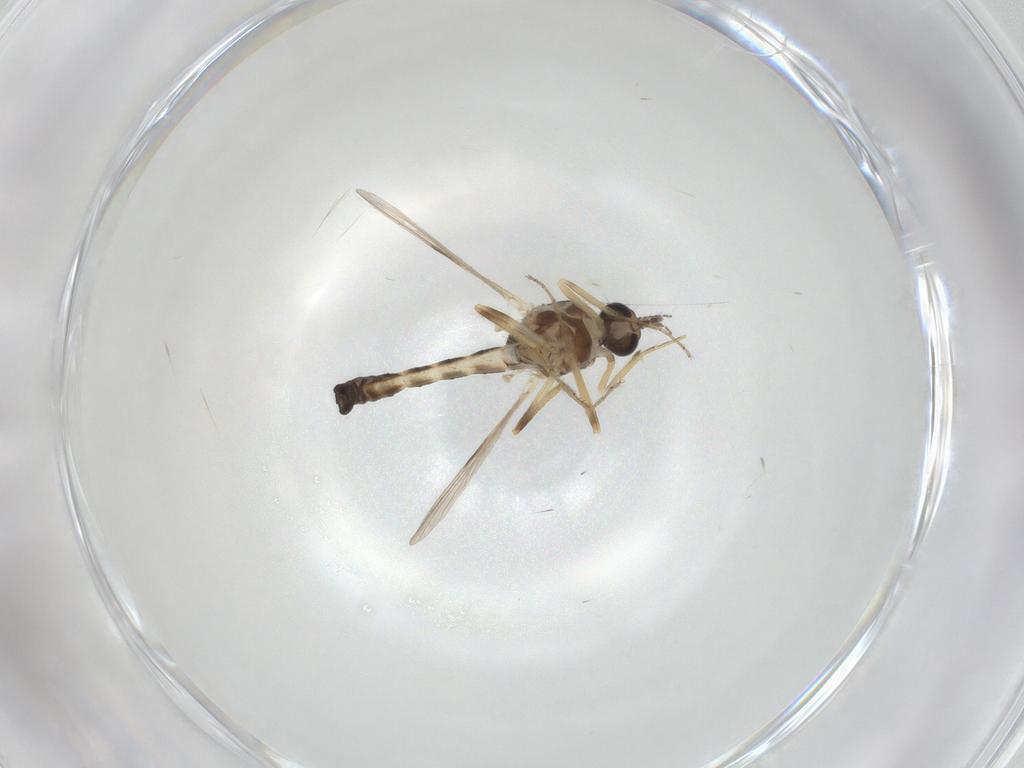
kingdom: Animalia
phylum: Arthropoda
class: Insecta
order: Diptera
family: Ceratopogonidae
